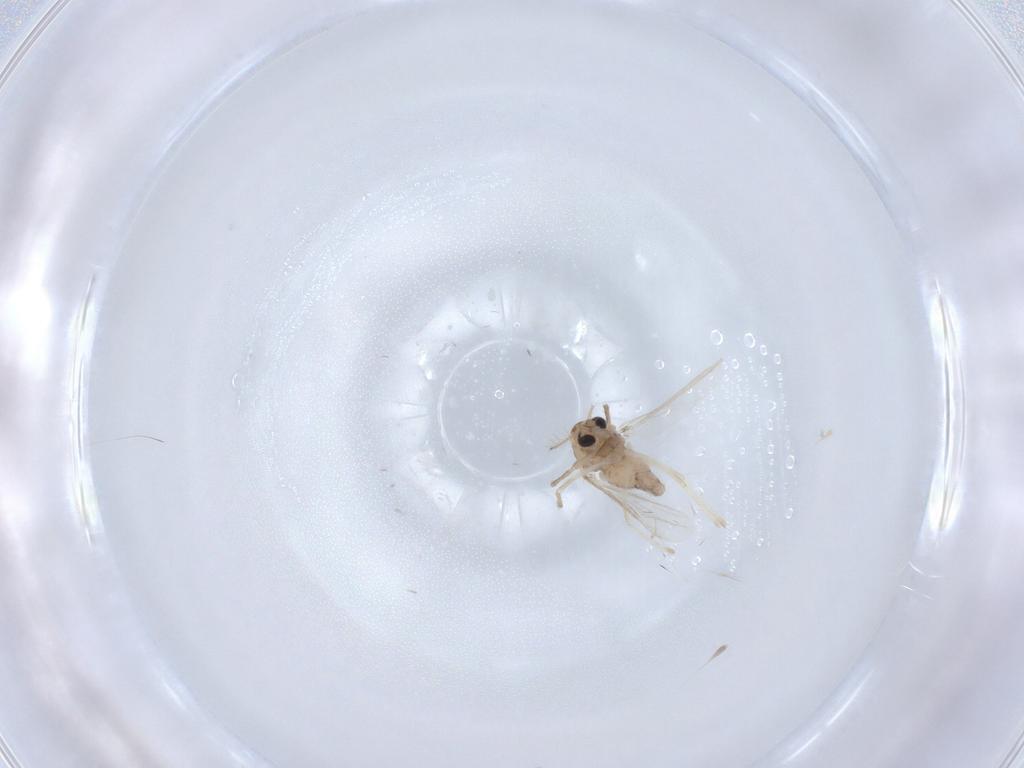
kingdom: Animalia
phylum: Arthropoda
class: Insecta
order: Diptera
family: Chironomidae
